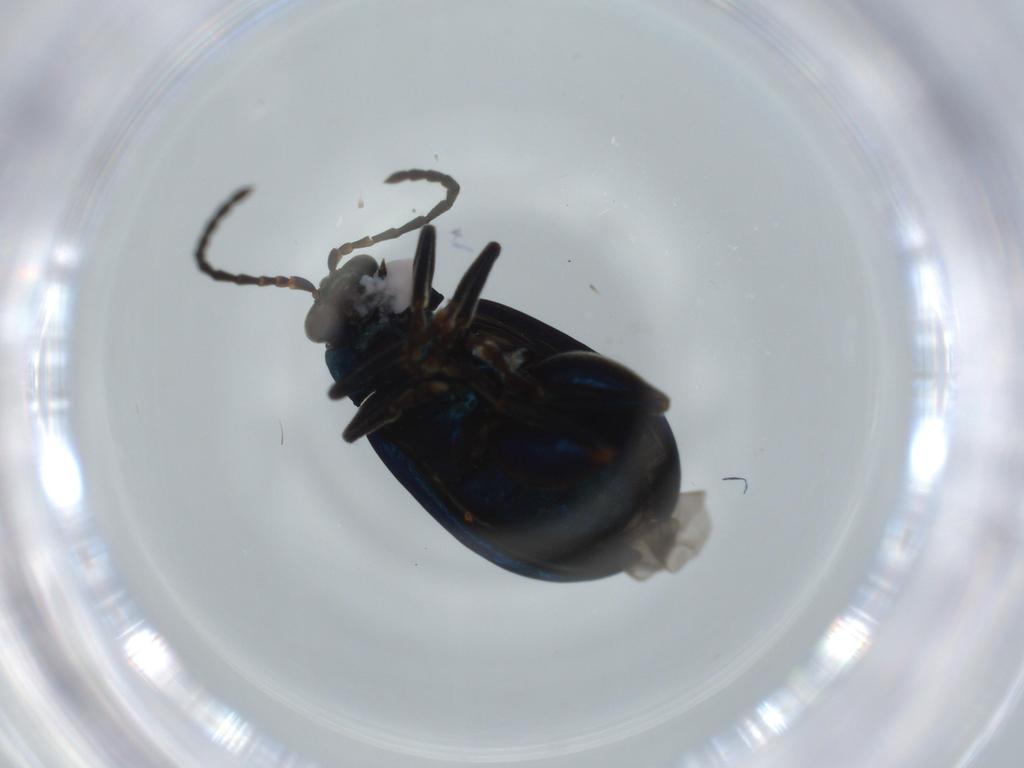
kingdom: Animalia
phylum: Arthropoda
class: Insecta
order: Coleoptera
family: Chrysomelidae
